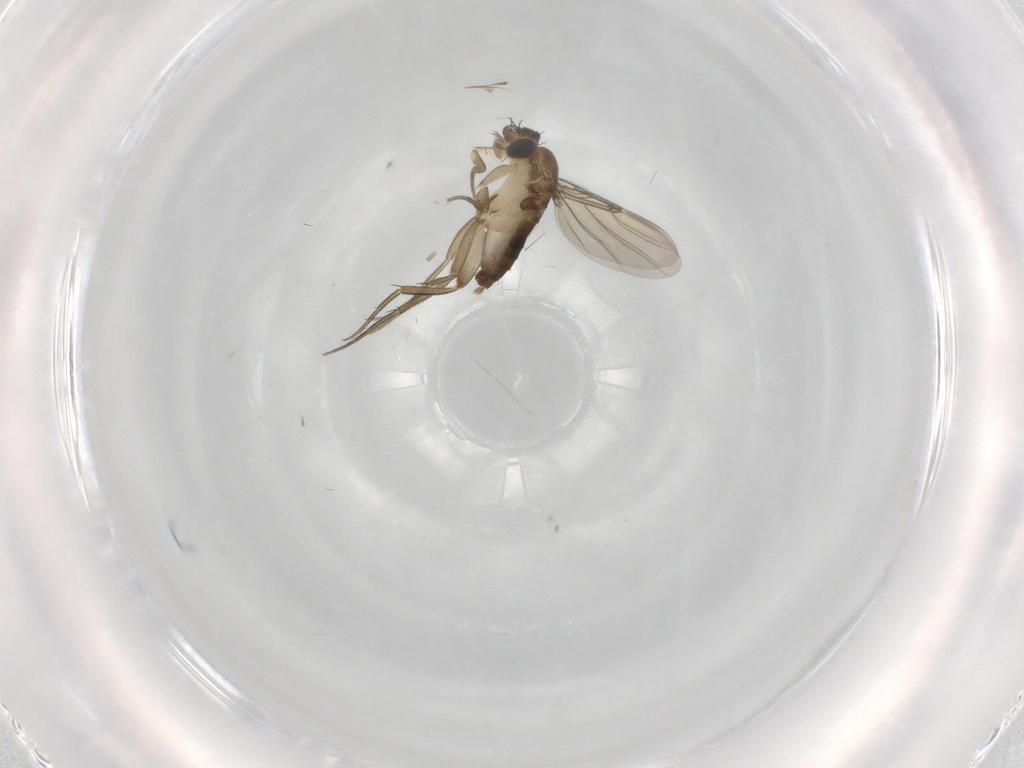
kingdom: Animalia
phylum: Arthropoda
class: Insecta
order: Diptera
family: Phoridae
